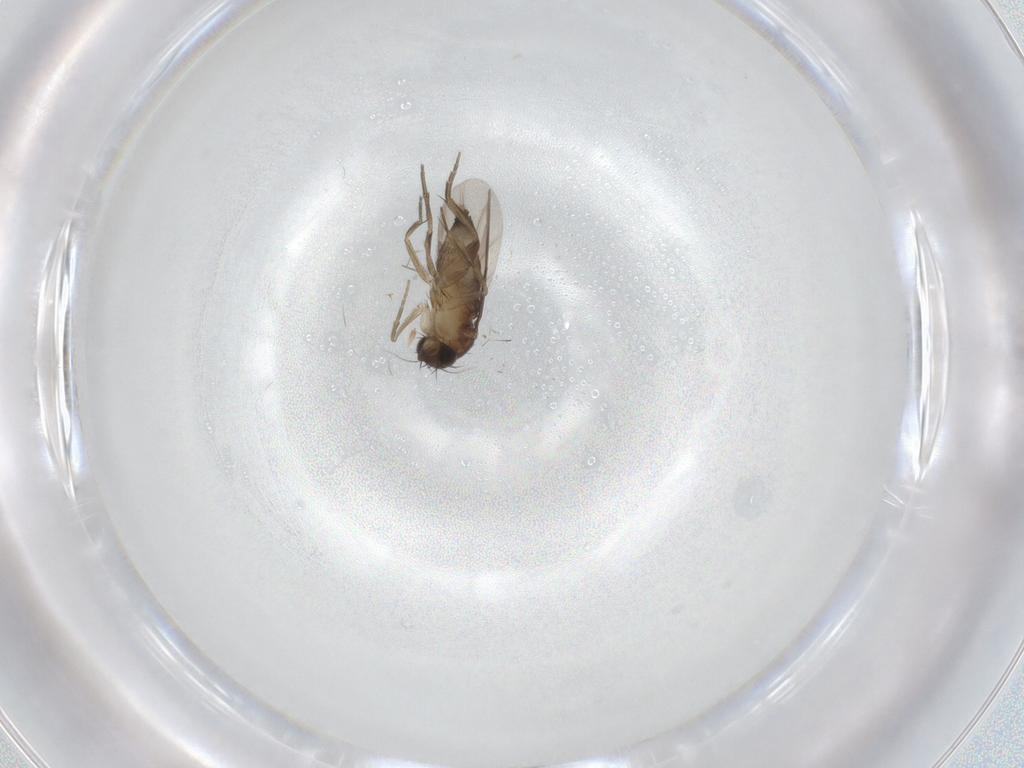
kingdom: Animalia
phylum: Arthropoda
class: Insecta
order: Diptera
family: Phoridae
